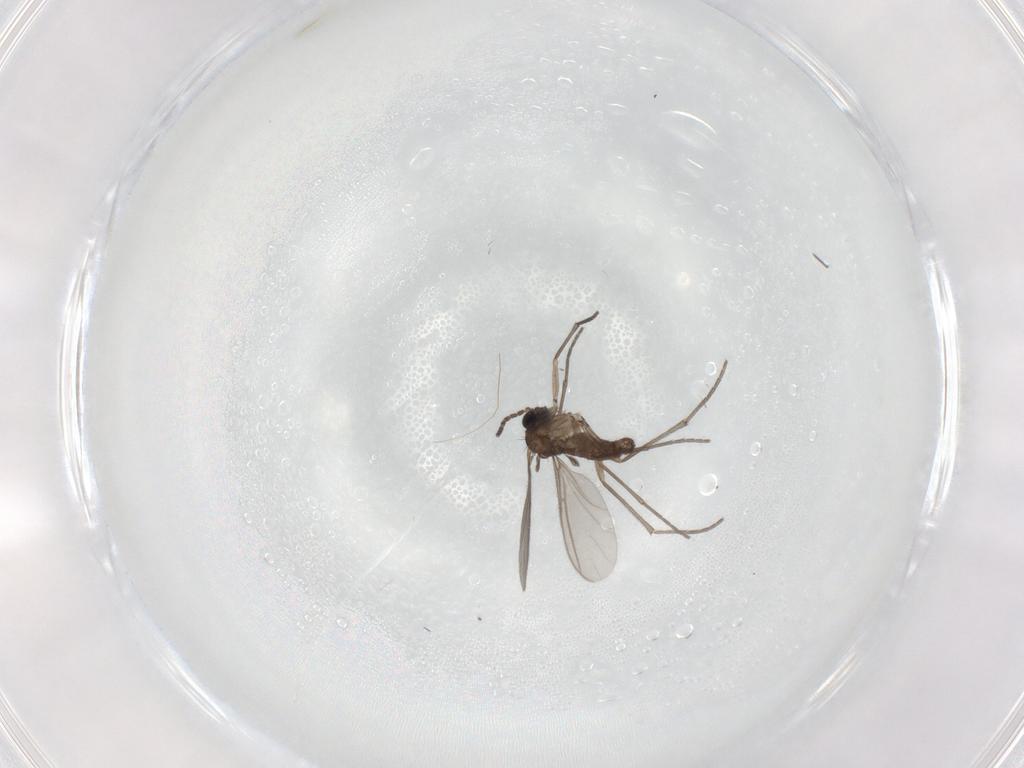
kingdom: Animalia
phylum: Arthropoda
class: Insecta
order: Diptera
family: Sciaridae
